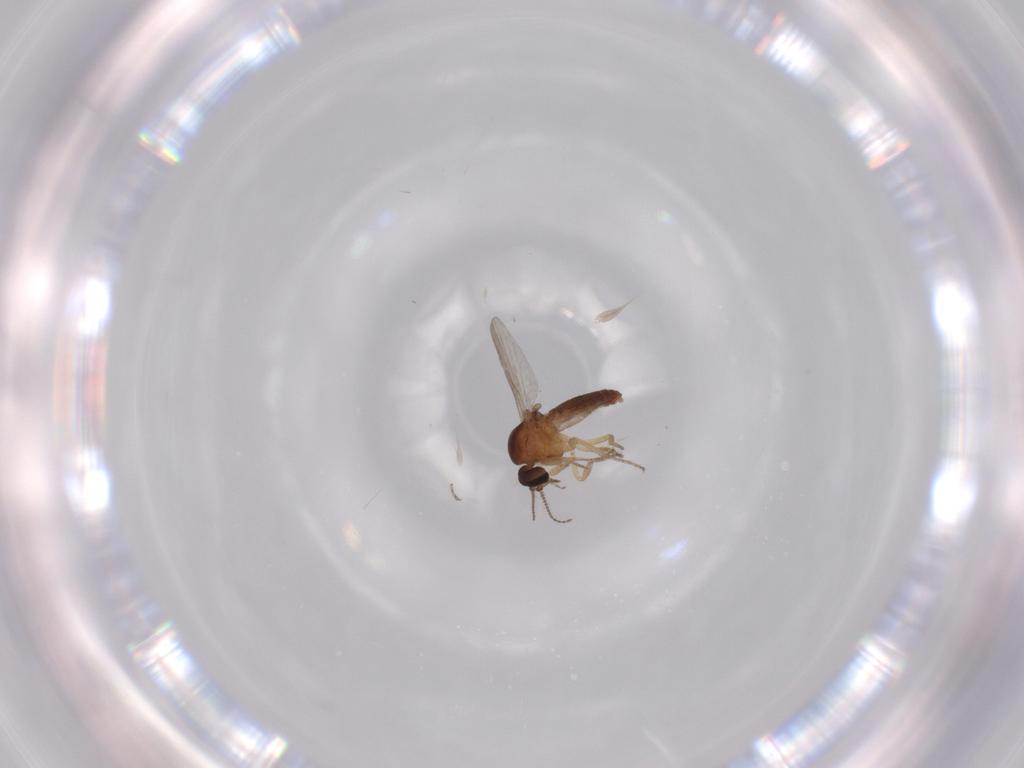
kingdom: Animalia
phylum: Arthropoda
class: Insecta
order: Diptera
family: Ceratopogonidae
